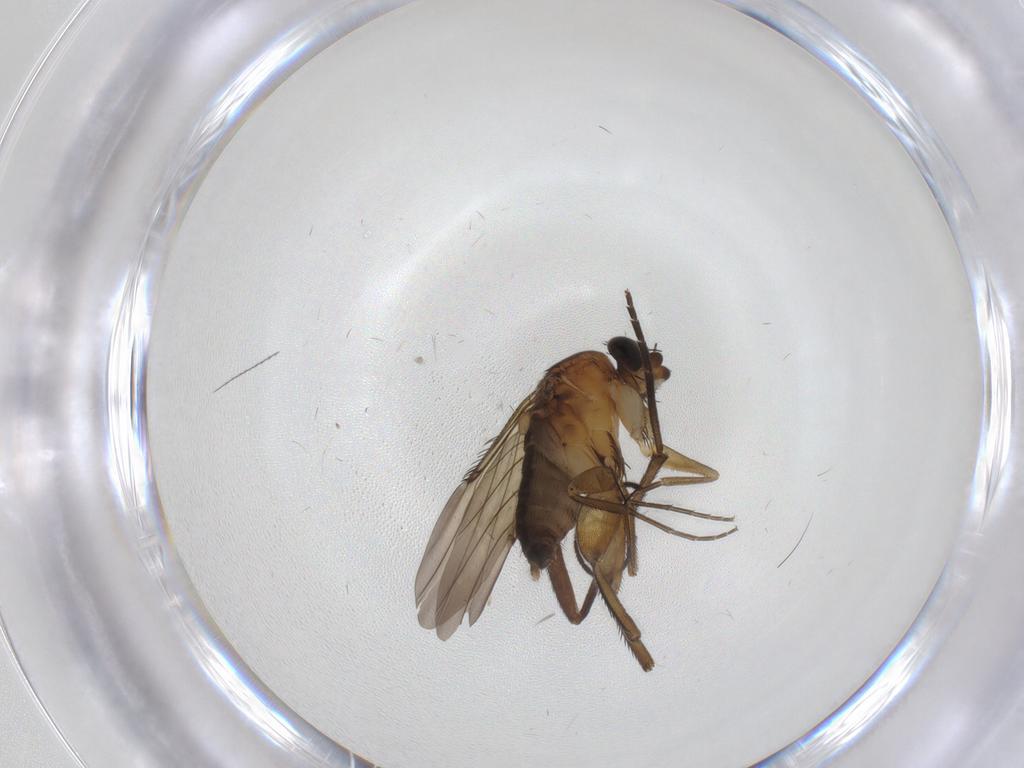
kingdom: Animalia
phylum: Arthropoda
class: Insecta
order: Diptera
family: Phoridae
